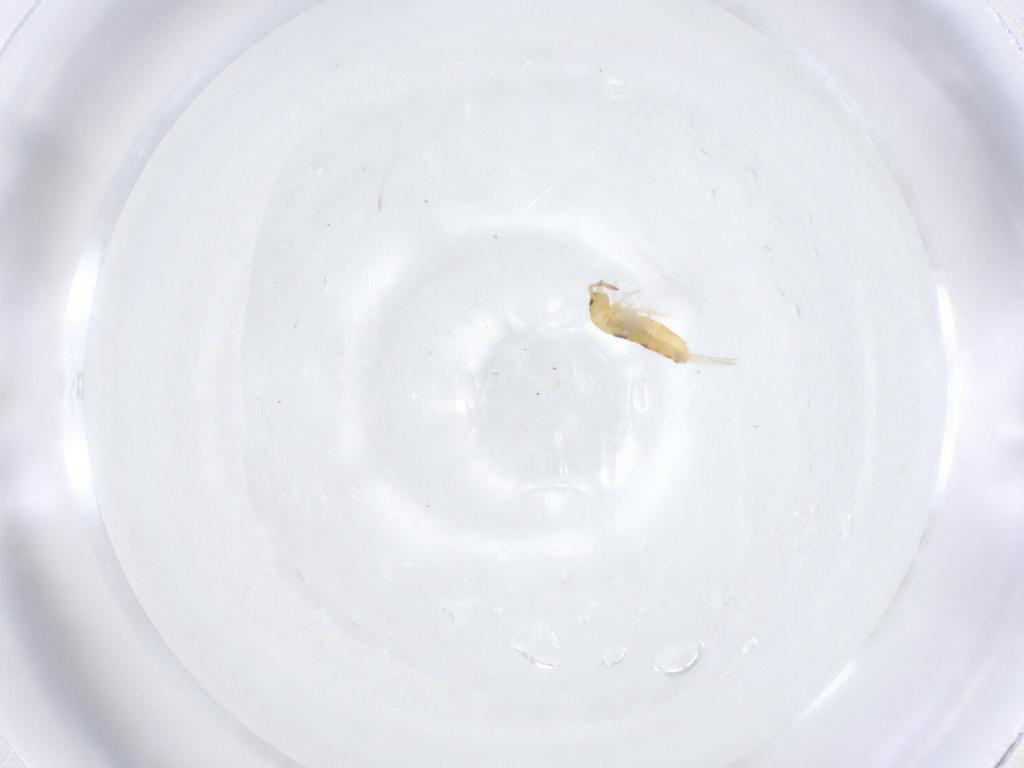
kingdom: Animalia
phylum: Arthropoda
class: Collembola
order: Entomobryomorpha
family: Entomobryidae
